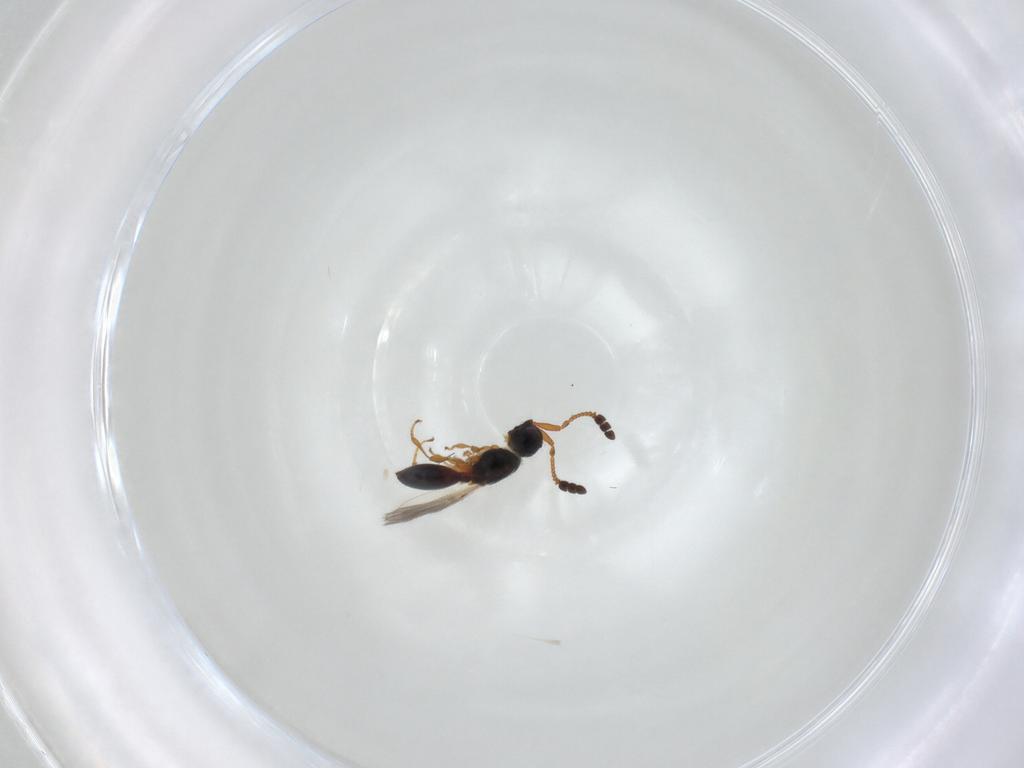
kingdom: Animalia
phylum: Arthropoda
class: Insecta
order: Hymenoptera
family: Diapriidae
